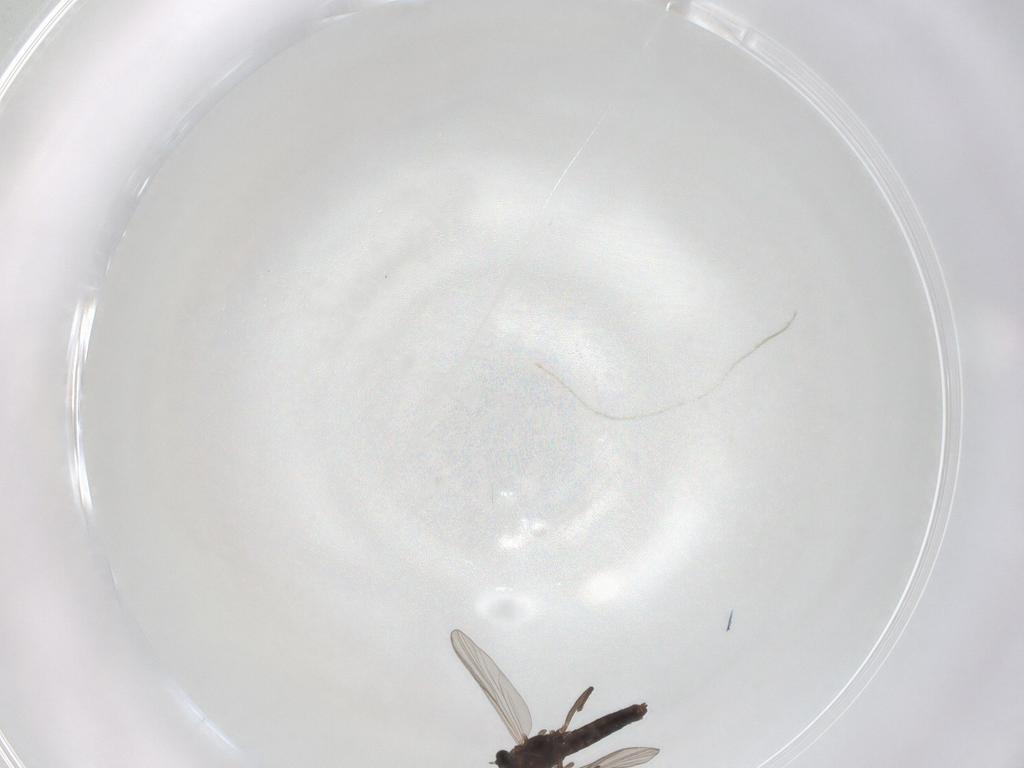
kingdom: Animalia
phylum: Arthropoda
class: Insecta
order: Diptera
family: Chironomidae
